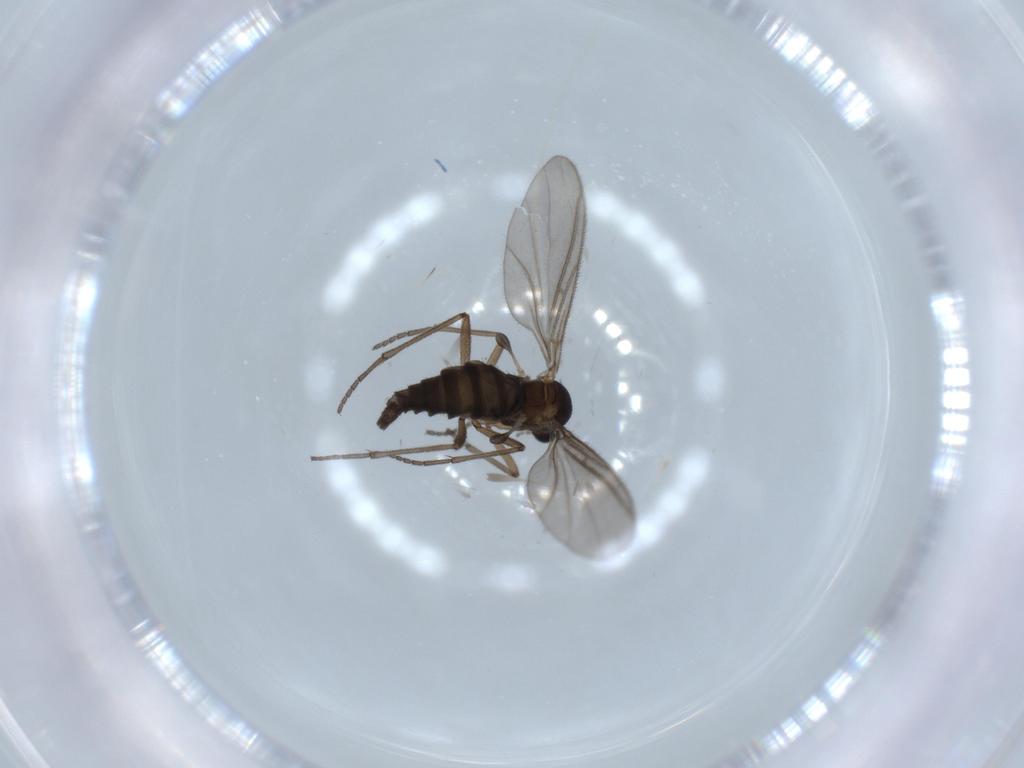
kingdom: Animalia
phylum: Arthropoda
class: Insecta
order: Diptera
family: Sciaridae
